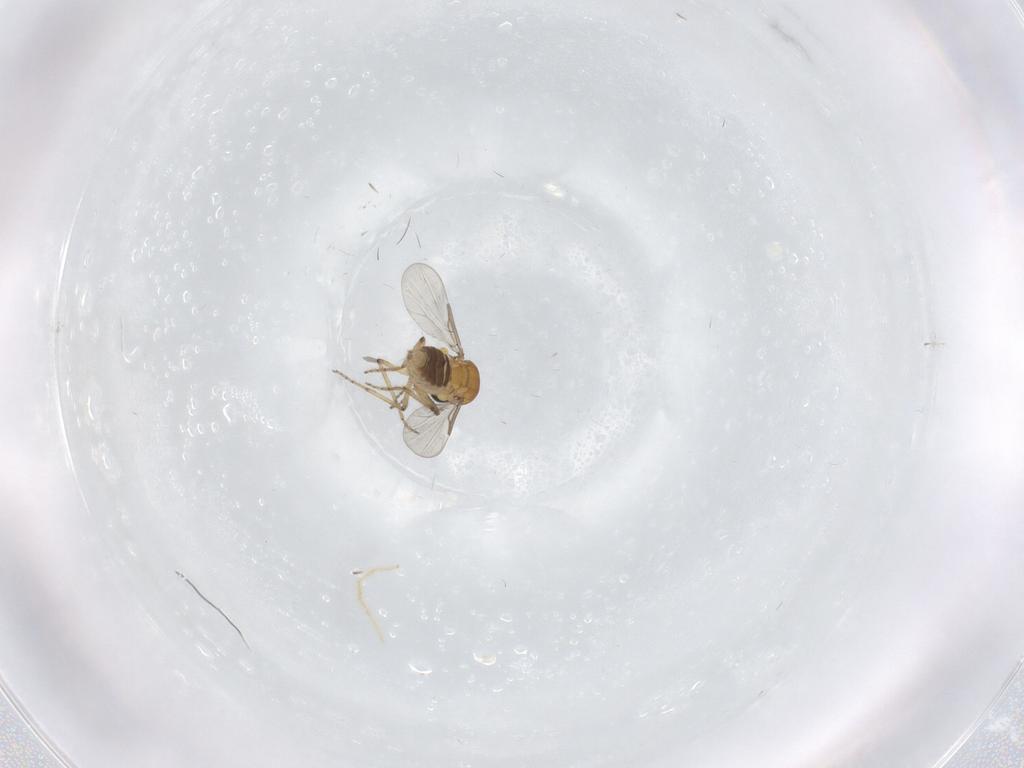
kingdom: Animalia
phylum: Arthropoda
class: Insecta
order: Diptera
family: Ceratopogonidae
